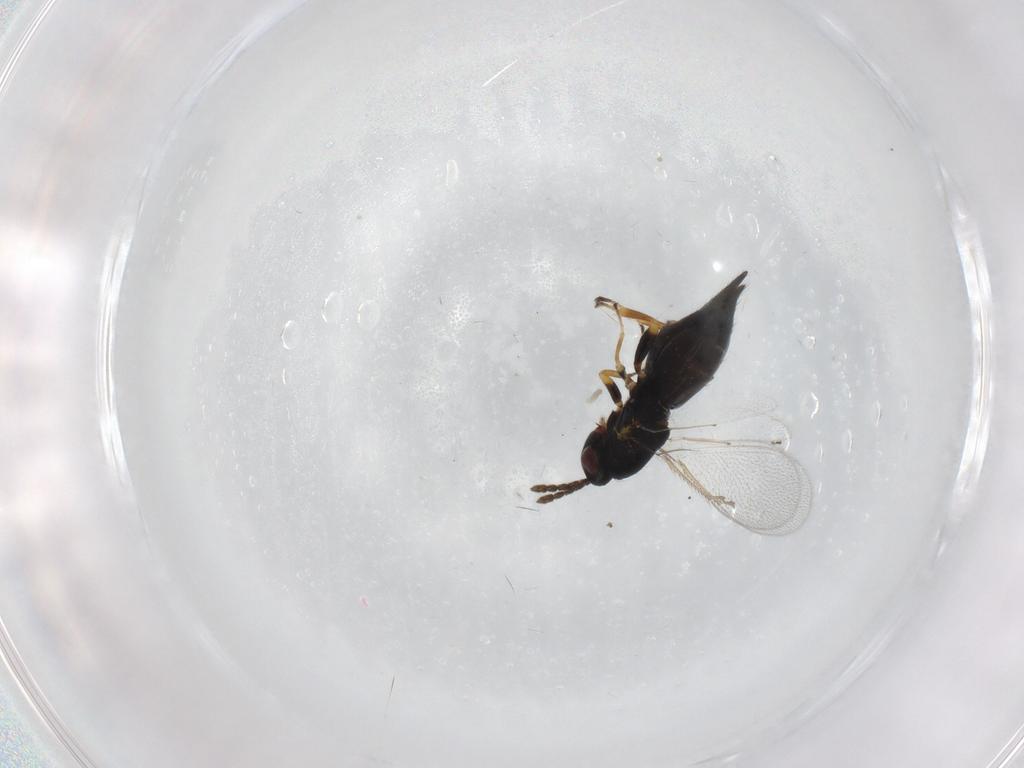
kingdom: Animalia
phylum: Arthropoda
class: Insecta
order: Hymenoptera
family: Eulophidae
